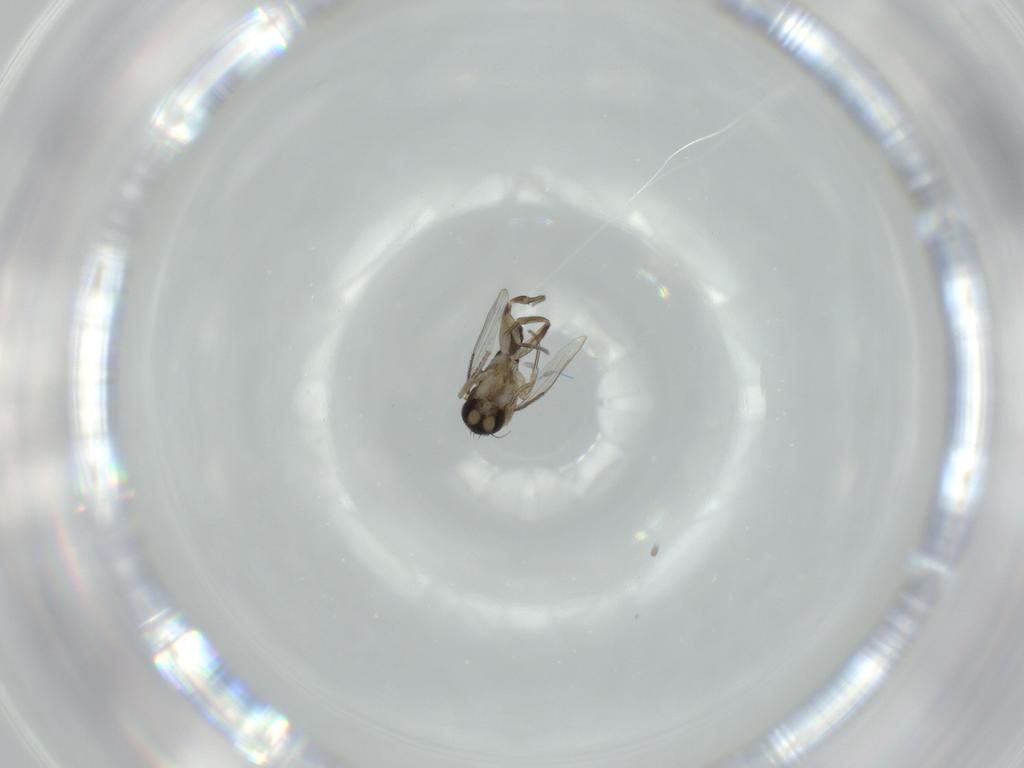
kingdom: Animalia
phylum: Arthropoda
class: Insecta
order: Diptera
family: Phoridae
